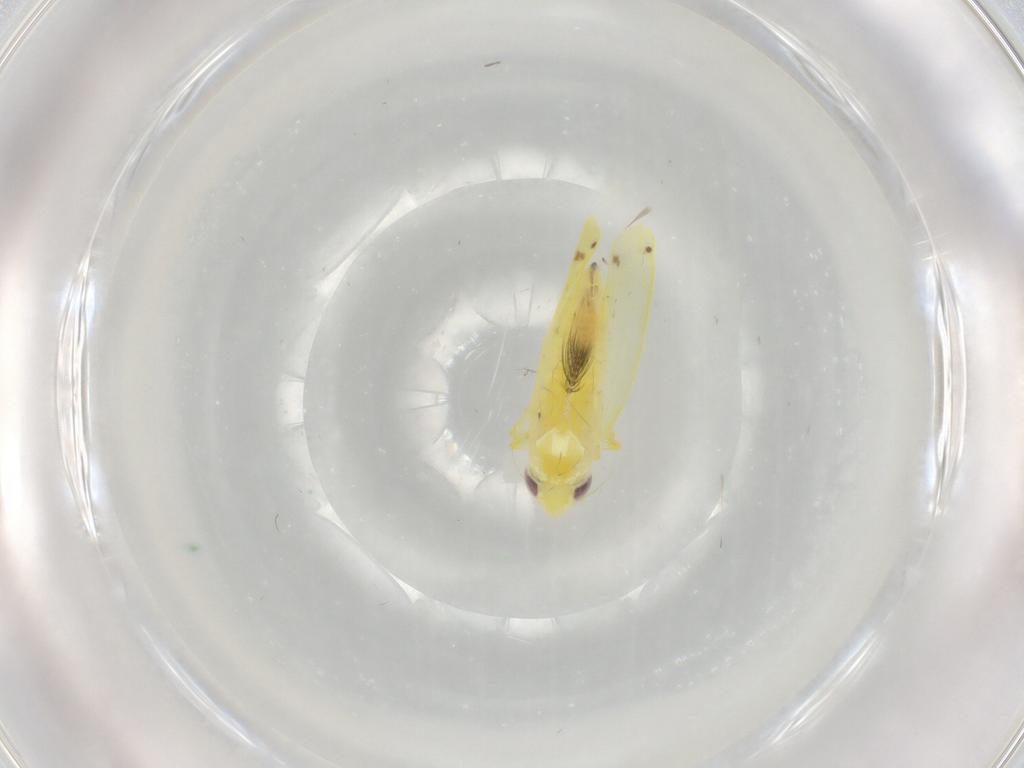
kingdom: Animalia
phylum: Arthropoda
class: Insecta
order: Hemiptera
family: Cicadellidae
